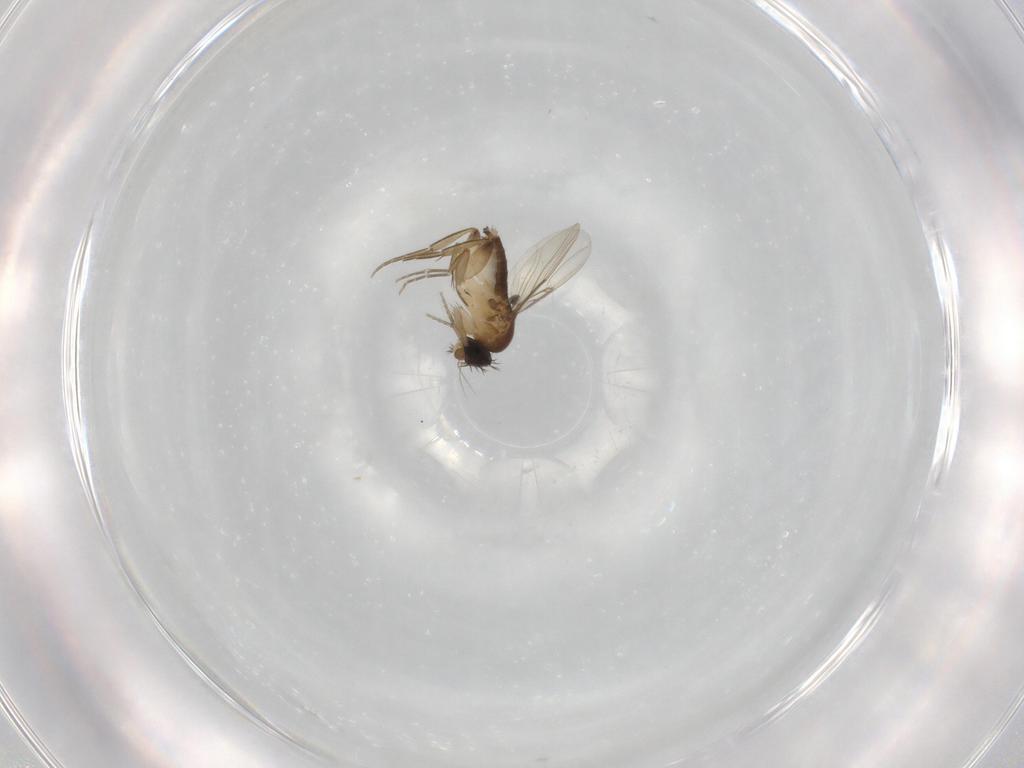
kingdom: Animalia
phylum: Arthropoda
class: Insecta
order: Diptera
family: Phoridae
